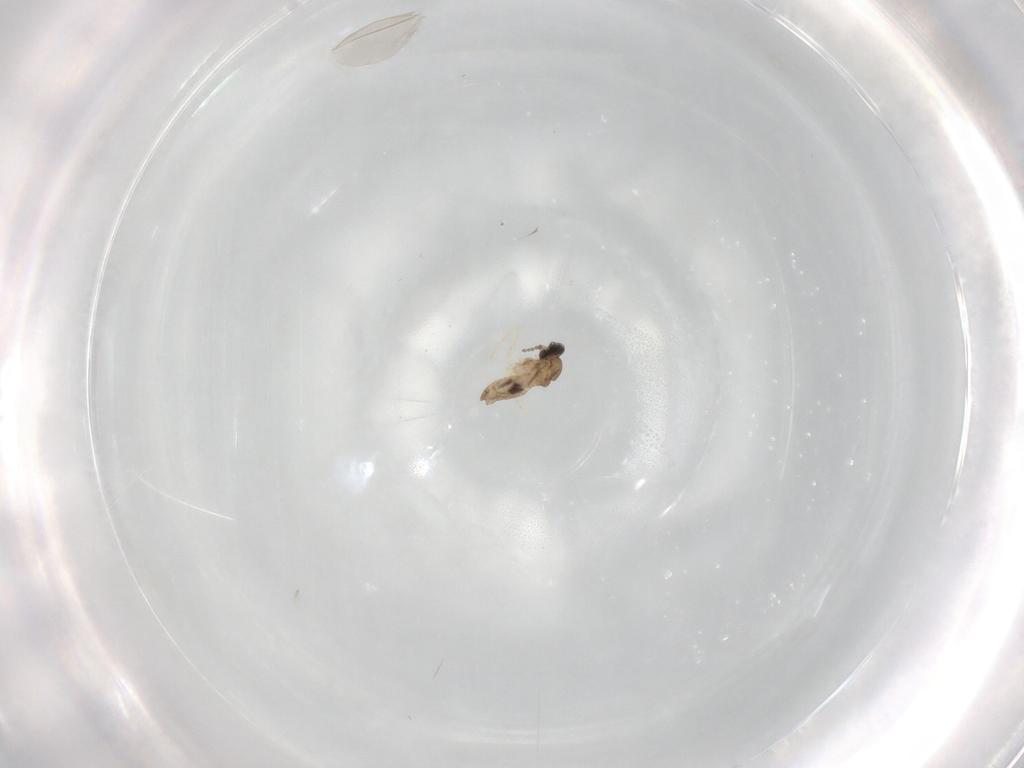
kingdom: Animalia
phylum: Arthropoda
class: Insecta
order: Diptera
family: Cecidomyiidae
